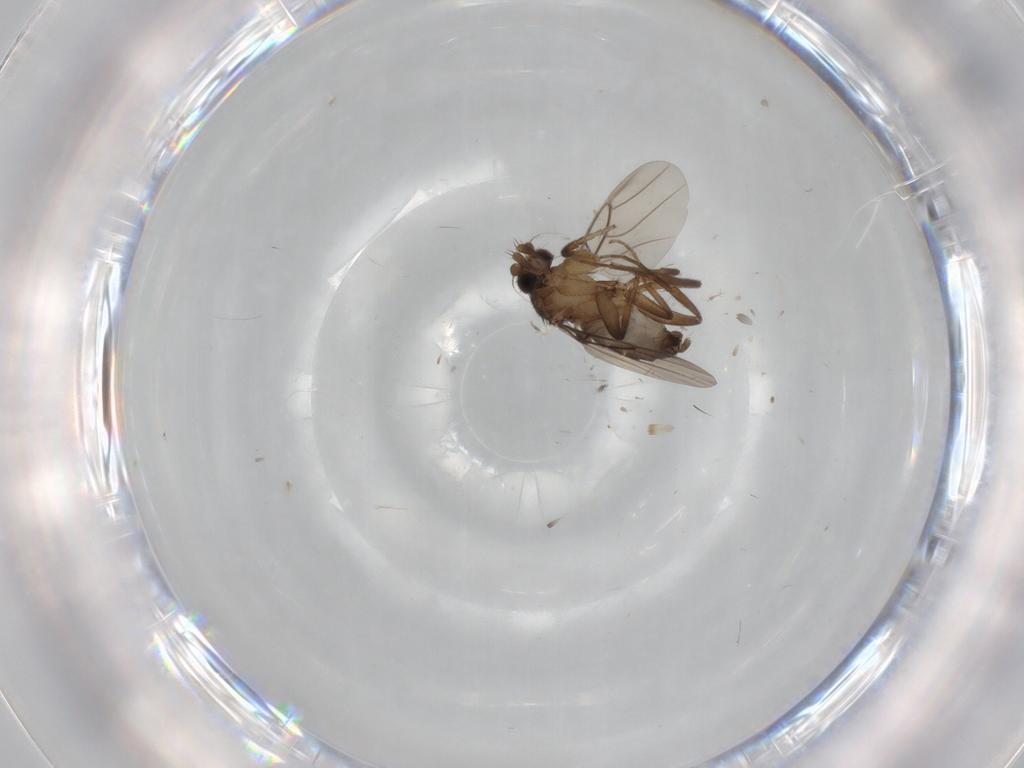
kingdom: Animalia
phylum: Arthropoda
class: Insecta
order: Diptera
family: Phoridae
